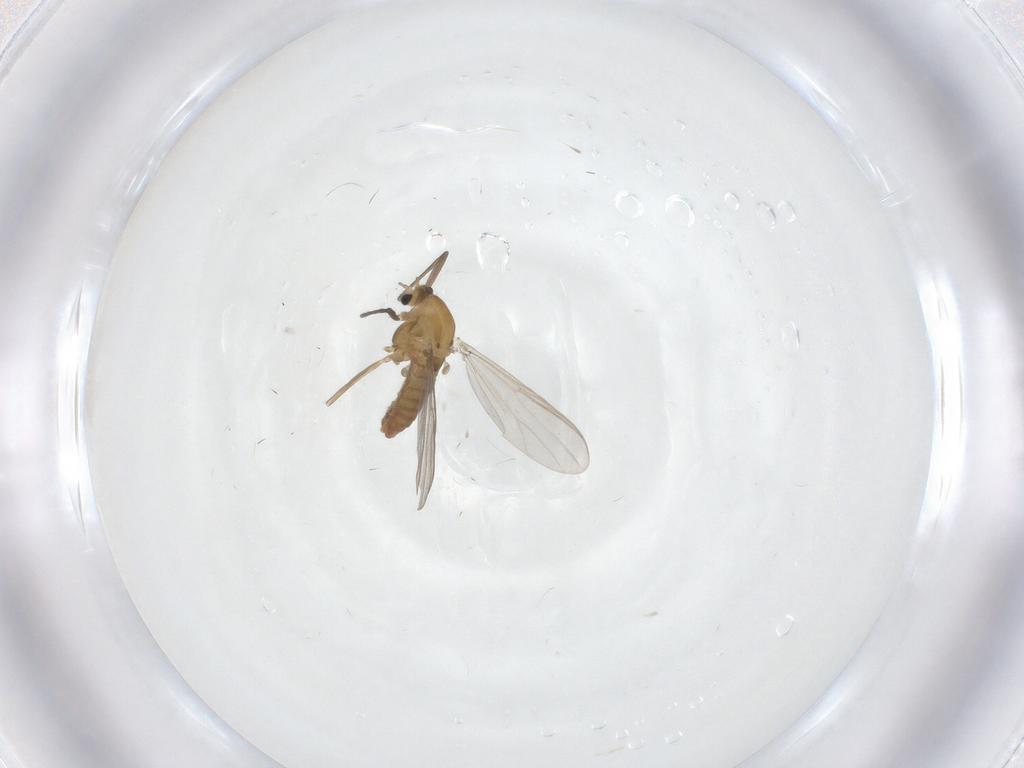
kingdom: Animalia
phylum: Arthropoda
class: Insecta
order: Diptera
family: Chironomidae
